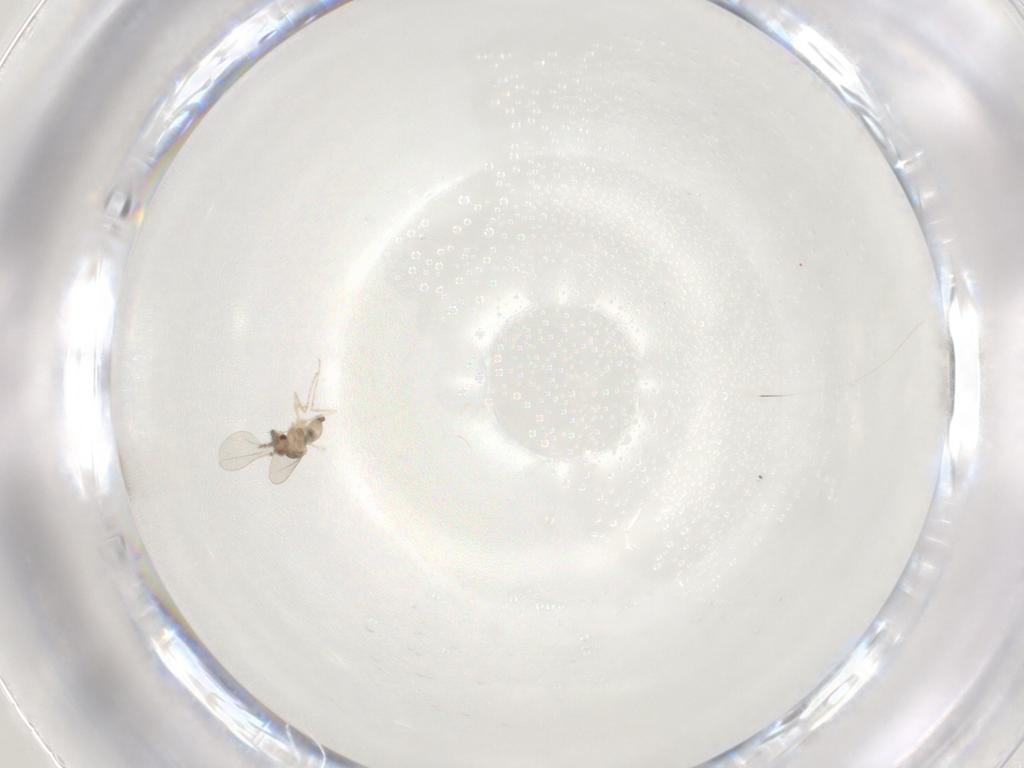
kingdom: Animalia
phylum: Arthropoda
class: Insecta
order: Diptera
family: Cecidomyiidae
